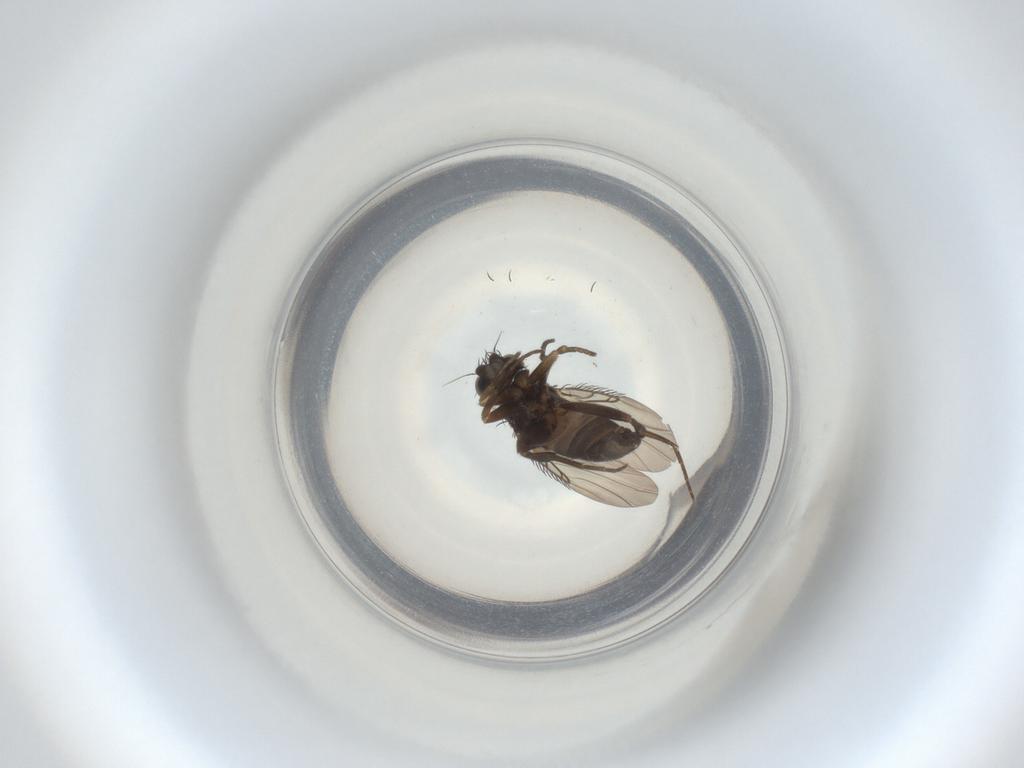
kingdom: Animalia
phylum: Arthropoda
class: Insecta
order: Diptera
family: Phoridae
